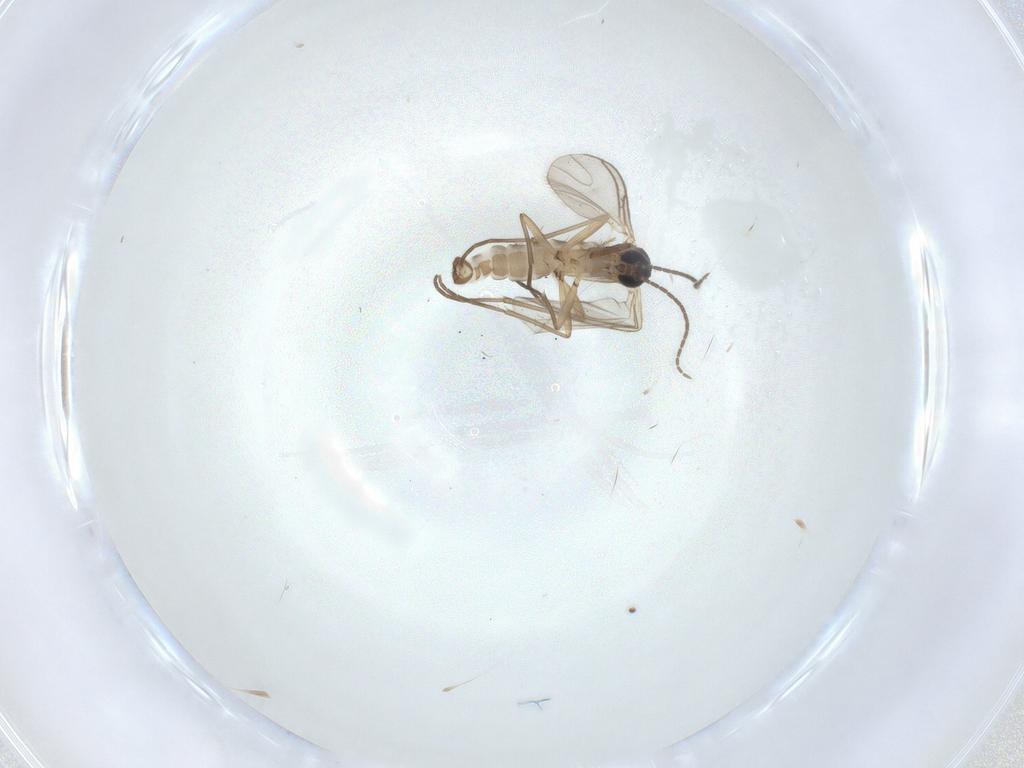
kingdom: Animalia
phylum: Arthropoda
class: Insecta
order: Diptera
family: Sciaridae
